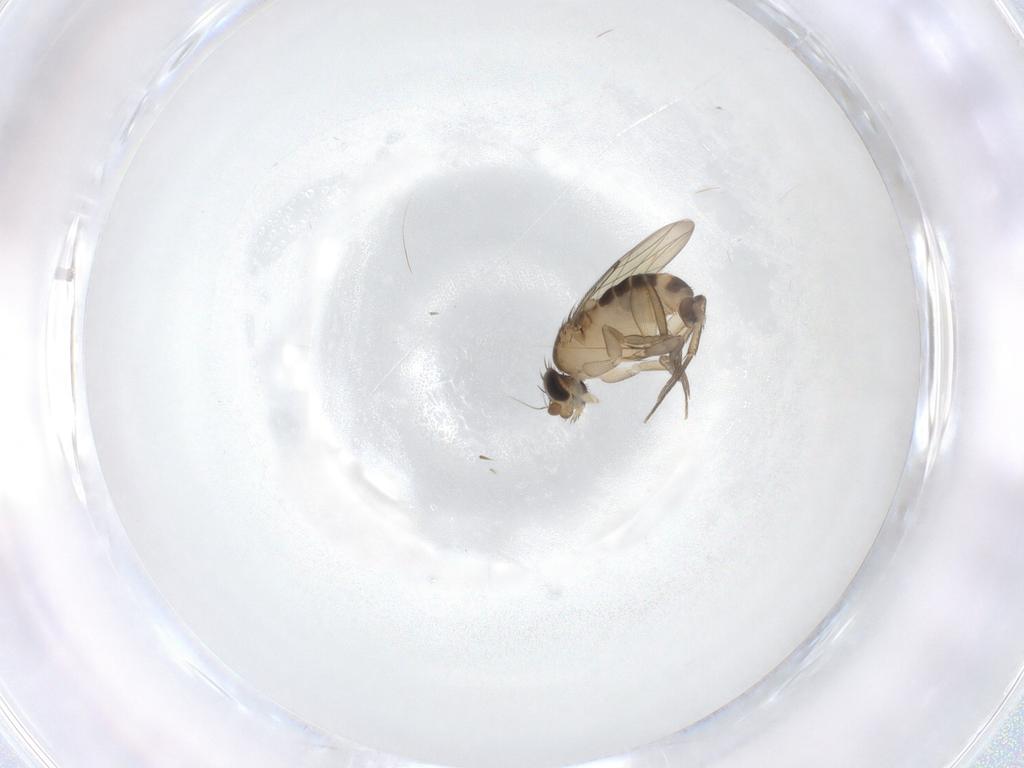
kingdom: Animalia
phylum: Arthropoda
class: Insecta
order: Diptera
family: Phoridae
